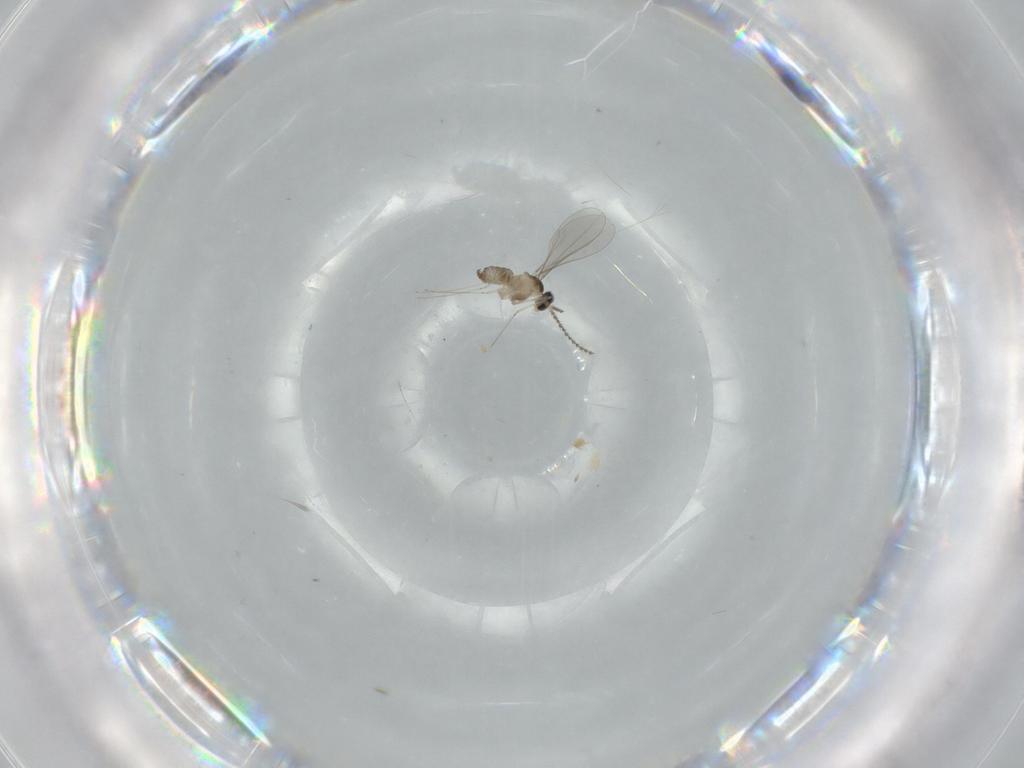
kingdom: Animalia
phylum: Arthropoda
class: Insecta
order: Diptera
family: Cecidomyiidae
